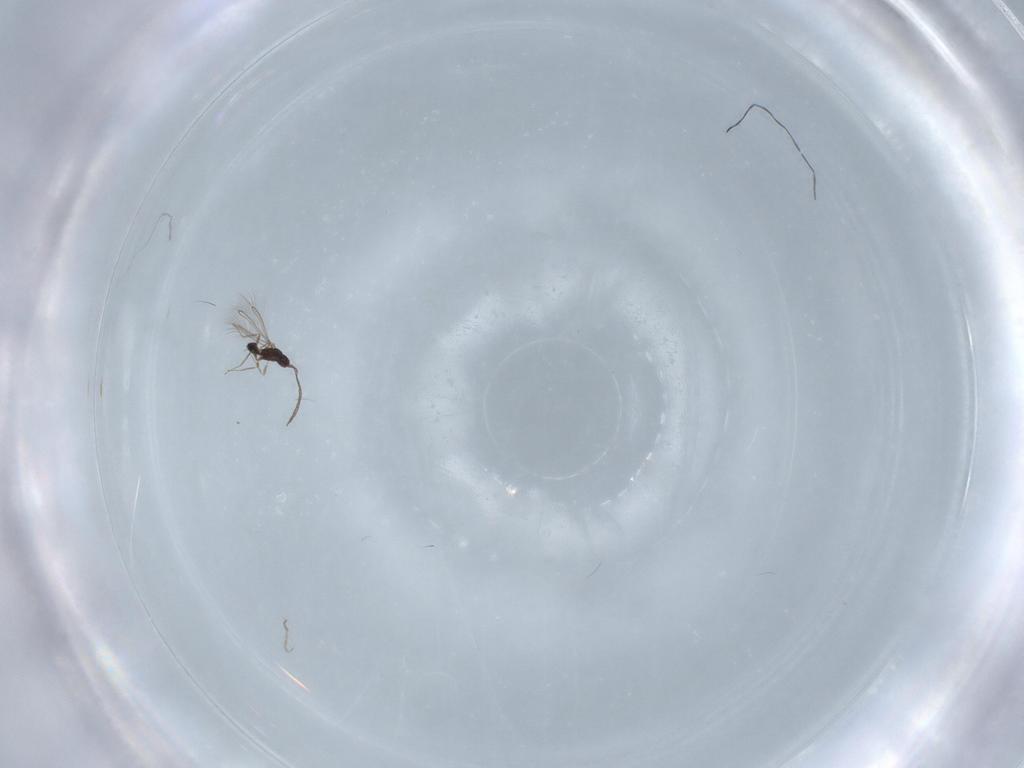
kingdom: Animalia
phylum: Arthropoda
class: Insecta
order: Hymenoptera
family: Mymaridae
